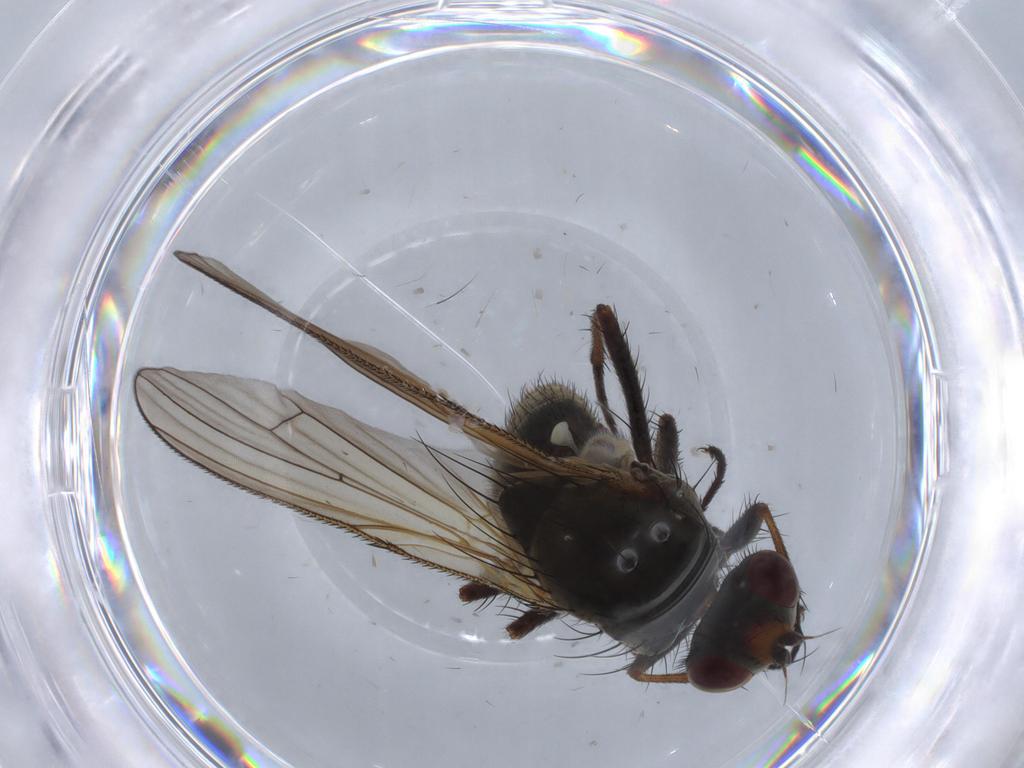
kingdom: Animalia
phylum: Arthropoda
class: Insecta
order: Diptera
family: Anthomyiidae
